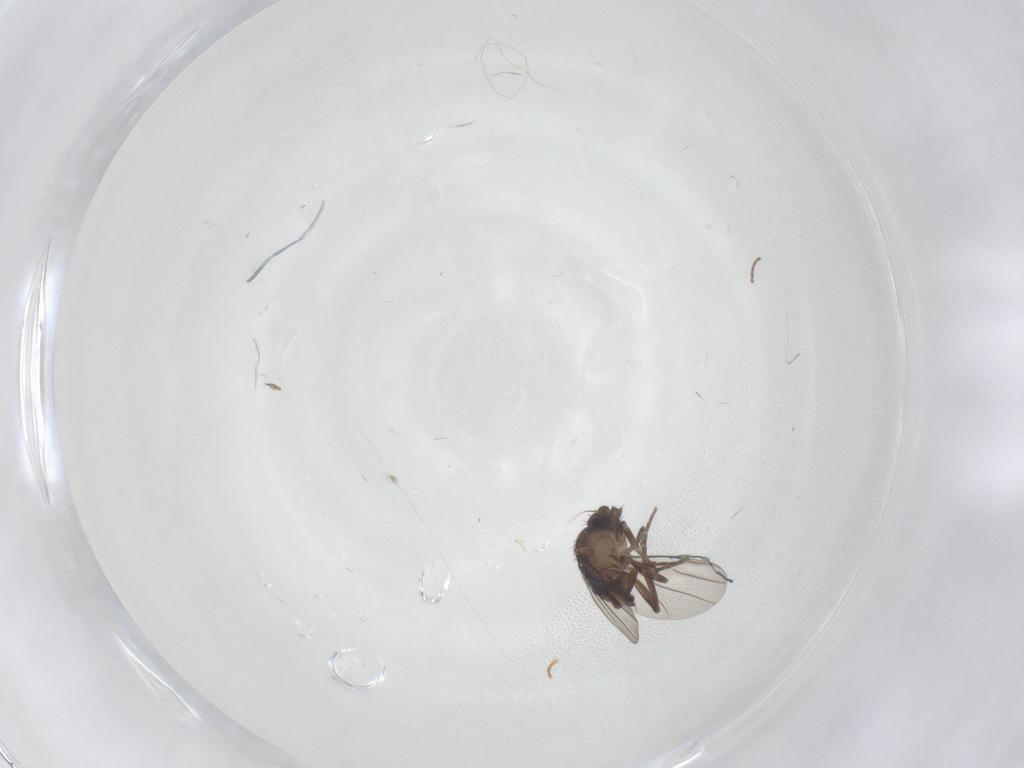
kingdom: Animalia
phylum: Arthropoda
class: Insecta
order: Diptera
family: Phoridae
